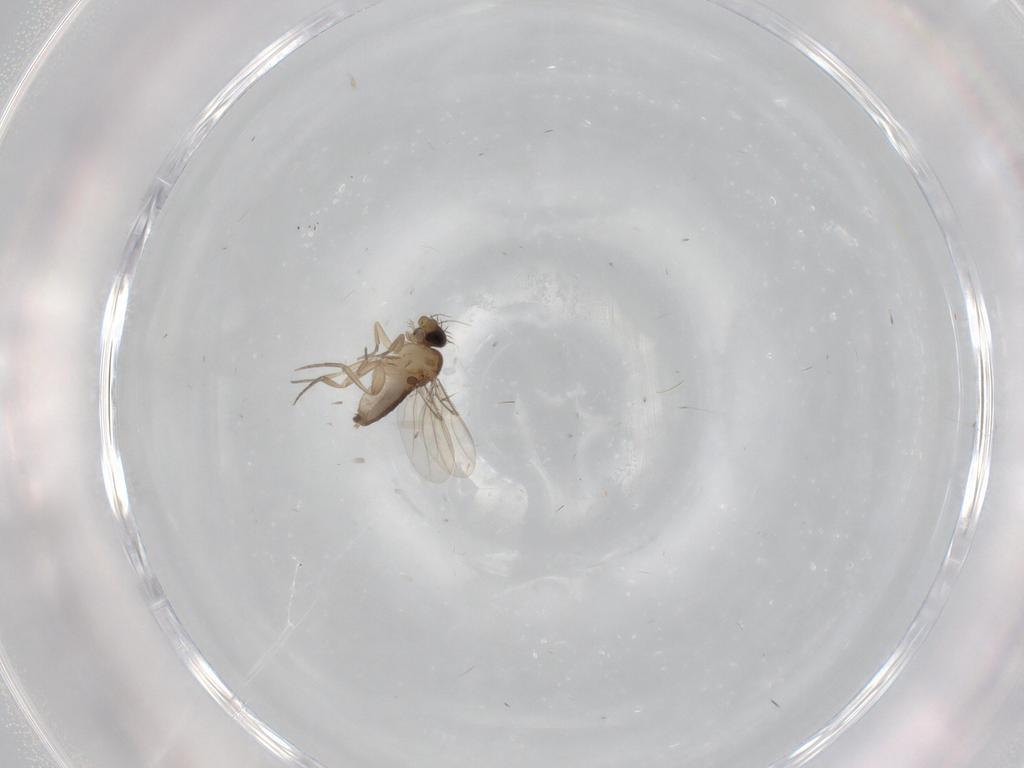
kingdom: Animalia
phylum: Arthropoda
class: Insecta
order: Diptera
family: Phoridae
